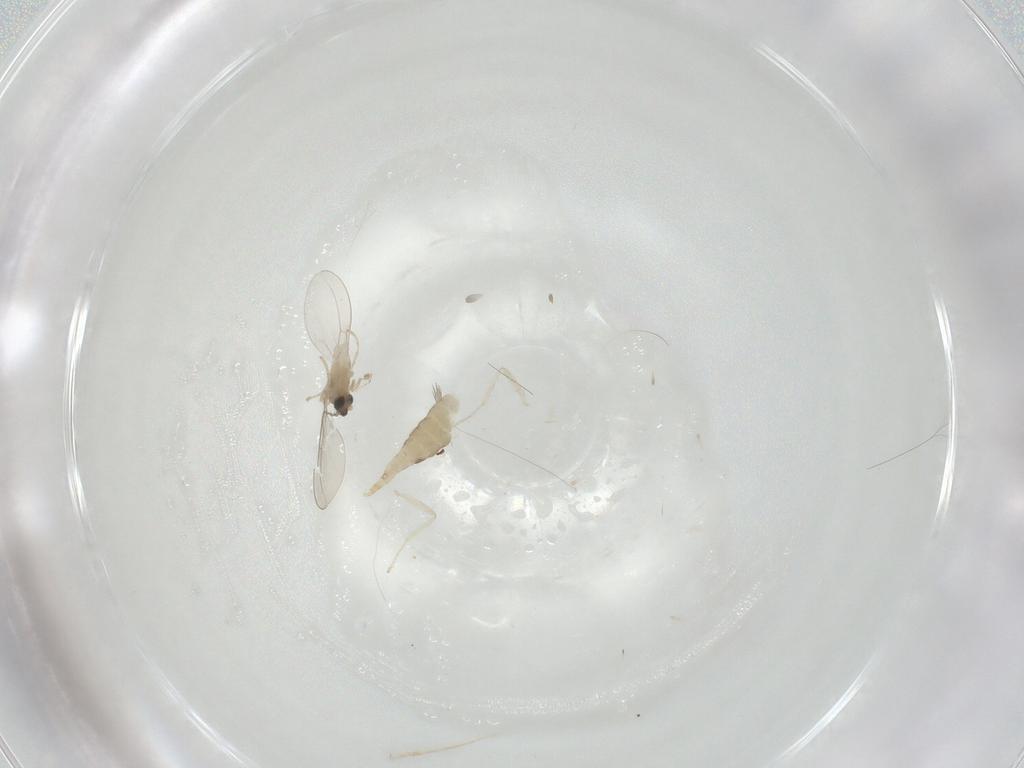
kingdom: Animalia
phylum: Arthropoda
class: Insecta
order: Diptera
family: Cecidomyiidae
